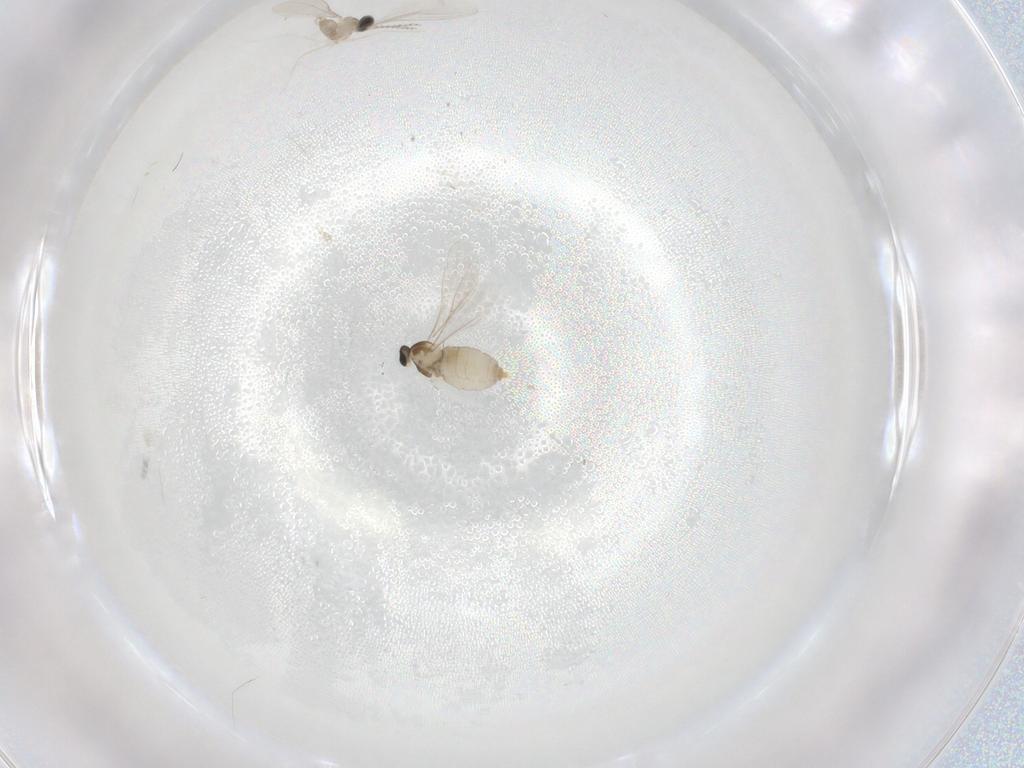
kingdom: Animalia
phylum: Arthropoda
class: Insecta
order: Diptera
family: Cecidomyiidae
